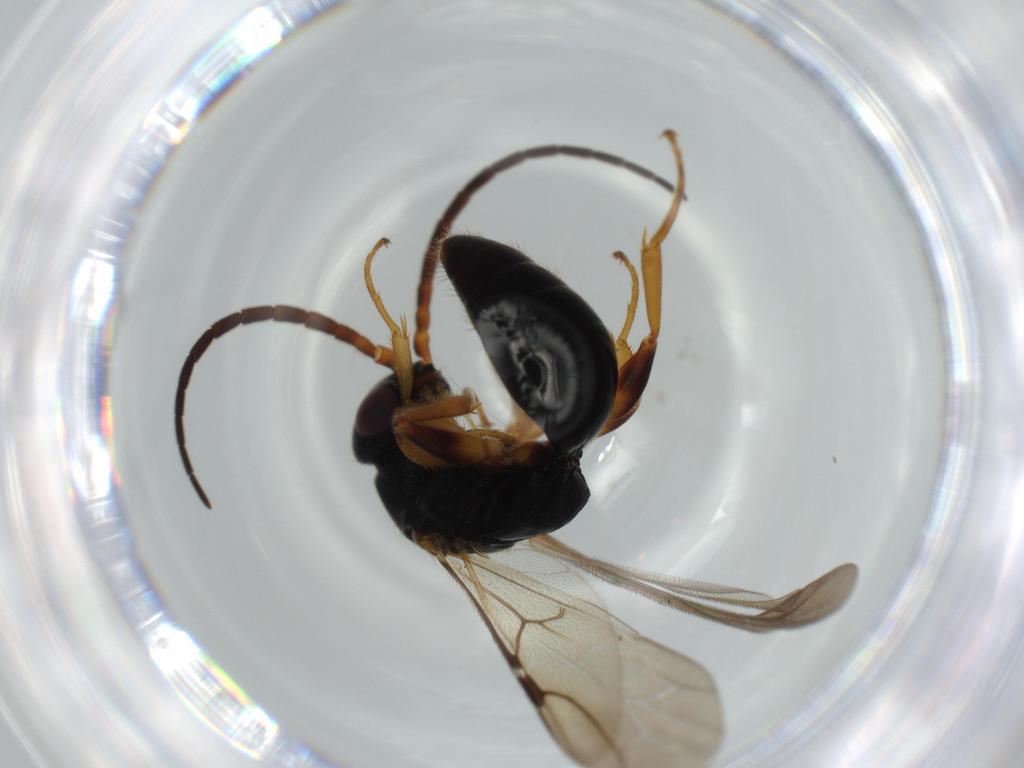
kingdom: Animalia
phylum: Arthropoda
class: Insecta
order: Hymenoptera
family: Bethylidae
